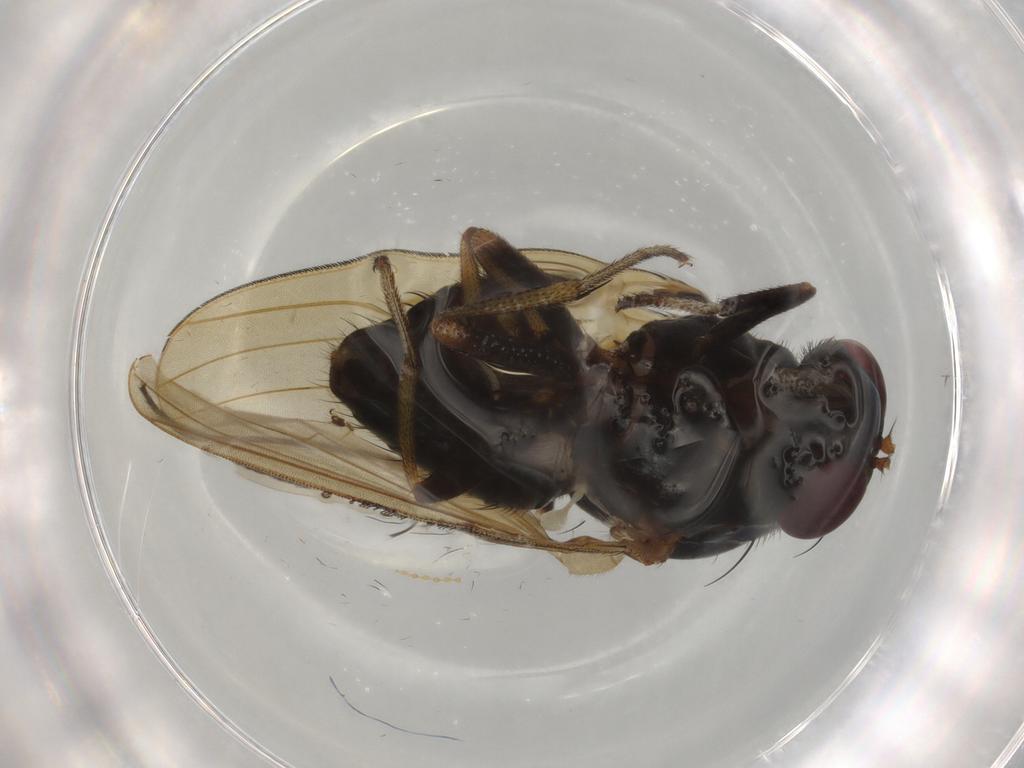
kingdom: Animalia
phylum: Arthropoda
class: Insecta
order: Diptera
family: Dolichopodidae
